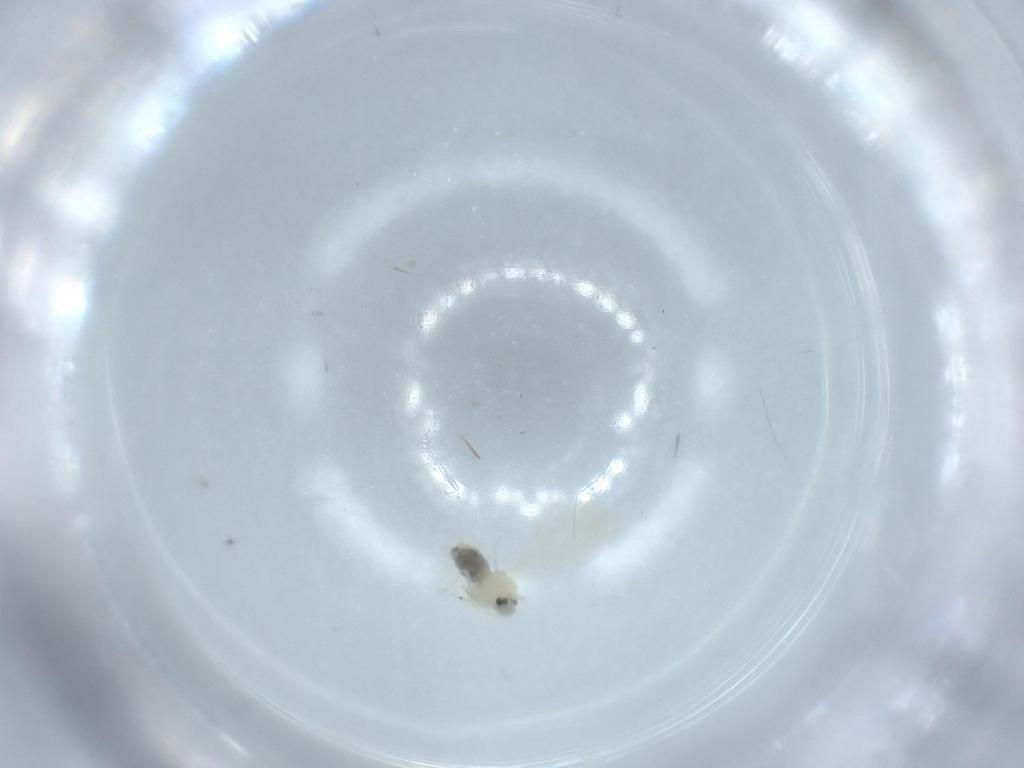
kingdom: Animalia
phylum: Arthropoda
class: Insecta
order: Hemiptera
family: Aleyrodidae
